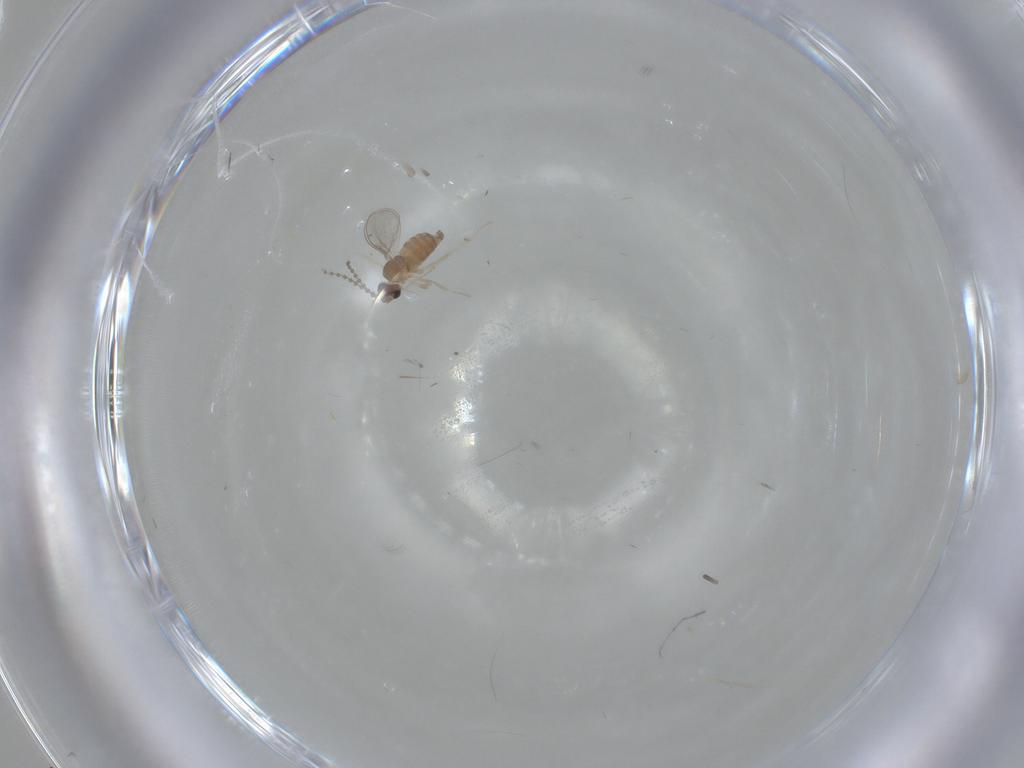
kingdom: Animalia
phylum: Arthropoda
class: Insecta
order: Diptera
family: Cecidomyiidae
